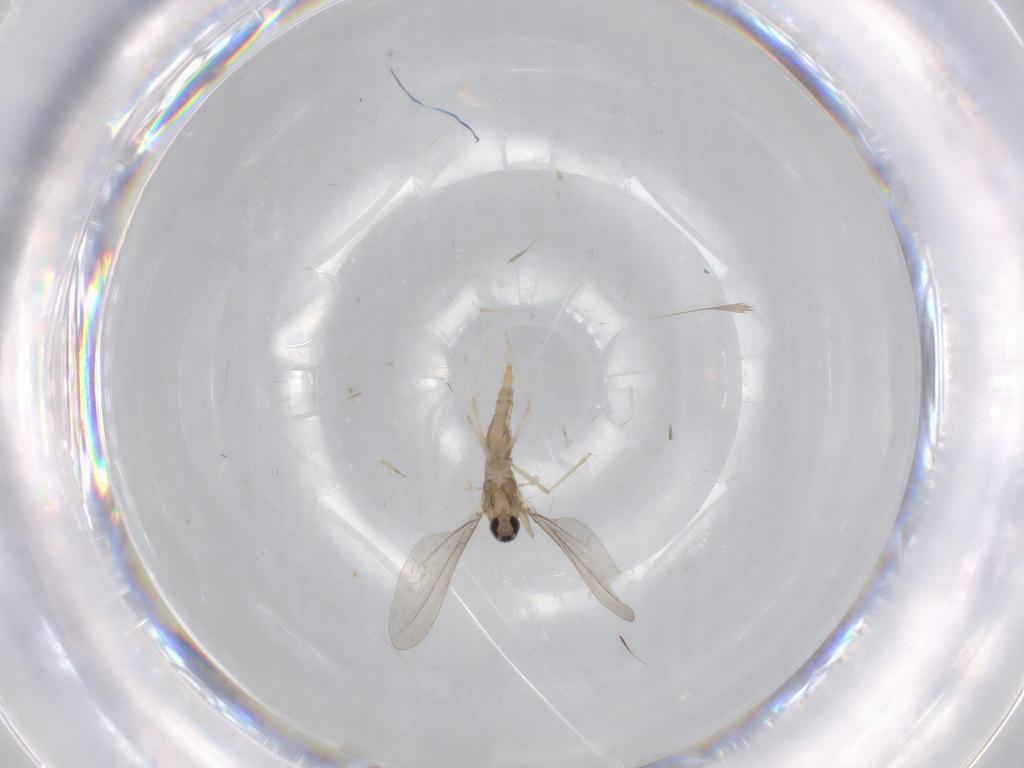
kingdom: Animalia
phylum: Arthropoda
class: Insecta
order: Diptera
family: Cecidomyiidae
